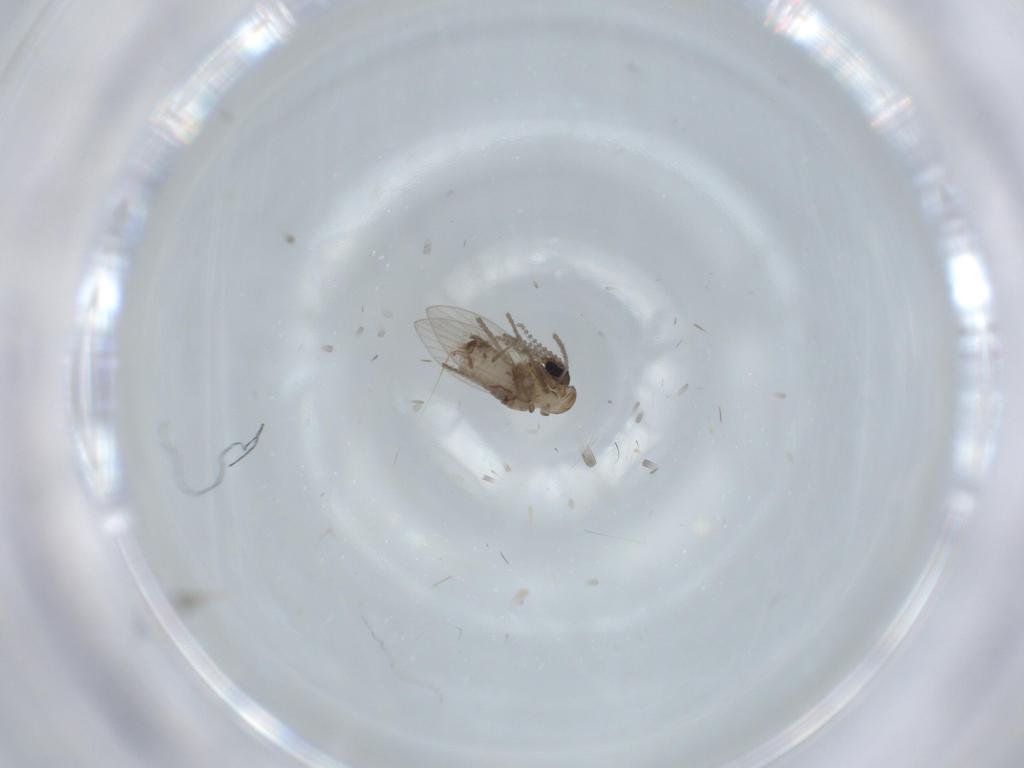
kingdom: Animalia
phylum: Arthropoda
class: Insecta
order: Diptera
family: Psychodidae
